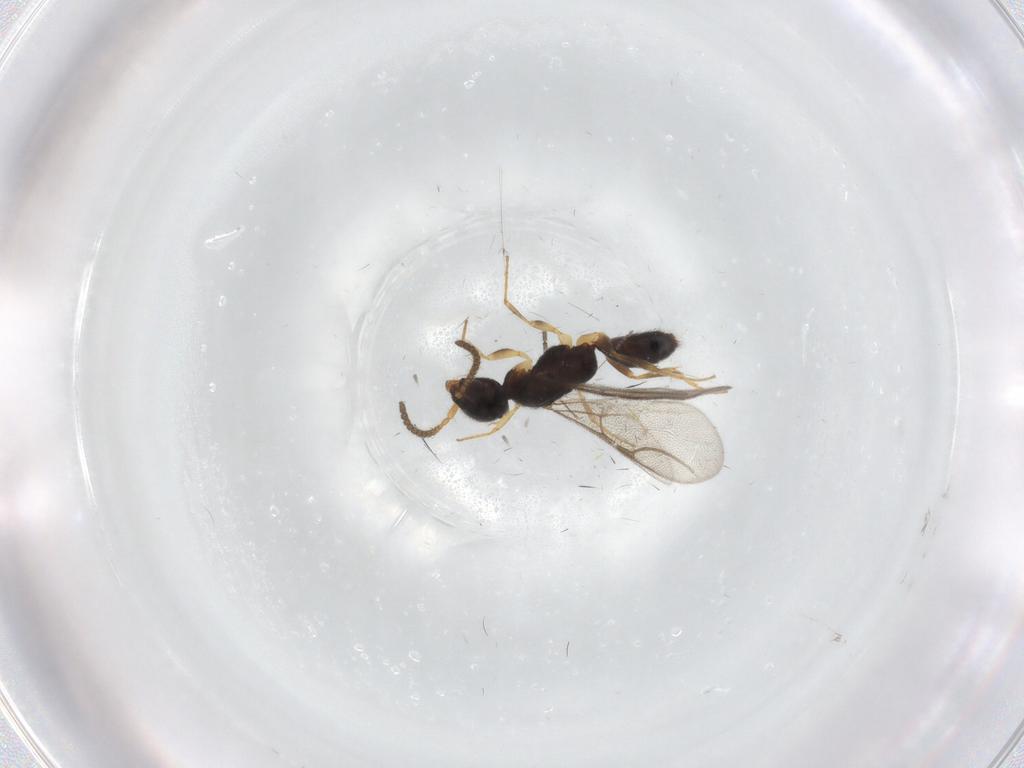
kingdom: Animalia
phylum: Arthropoda
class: Insecta
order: Hymenoptera
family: Bethylidae
